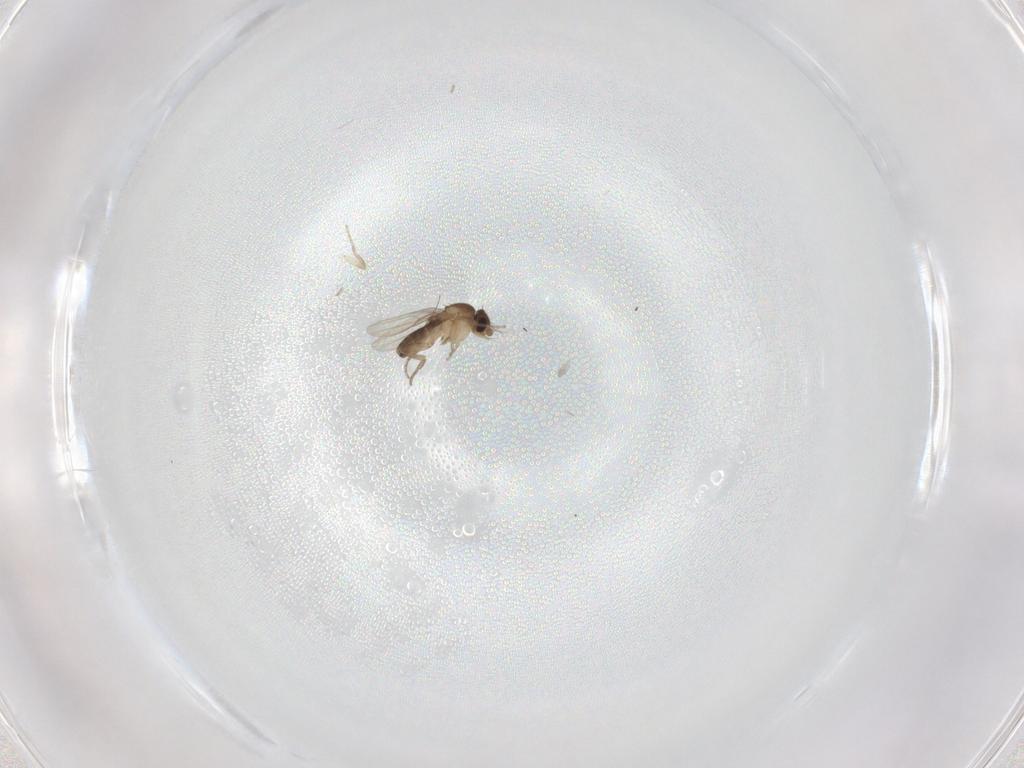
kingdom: Animalia
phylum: Arthropoda
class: Insecta
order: Diptera
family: Phoridae
